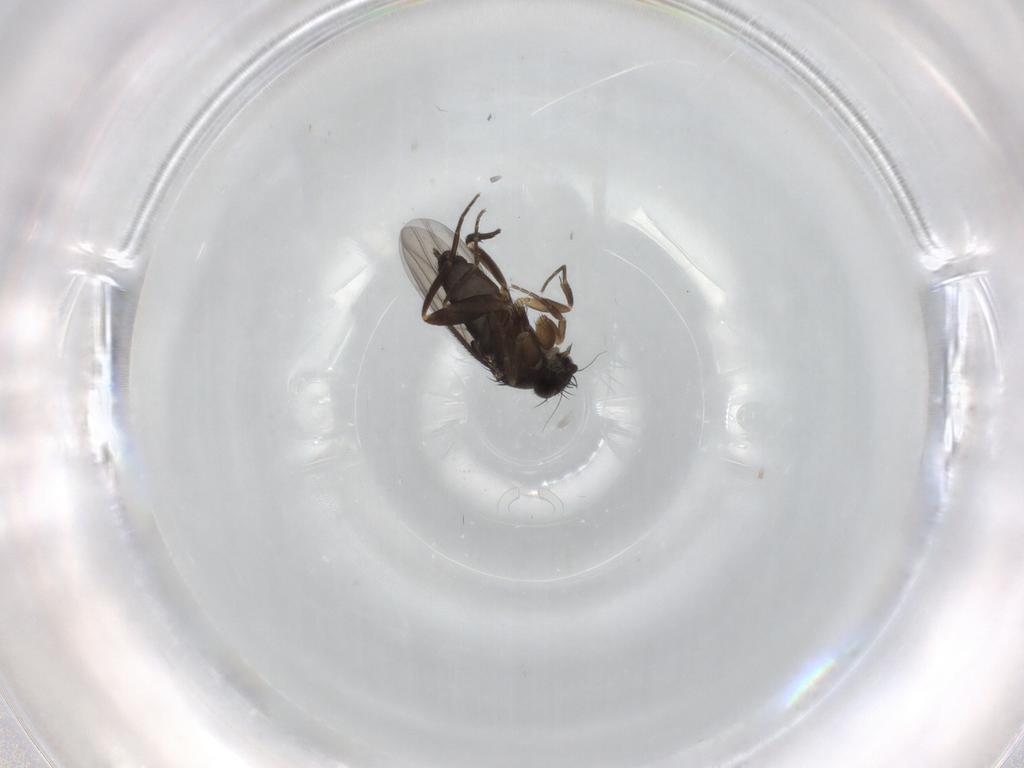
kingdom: Animalia
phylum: Arthropoda
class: Insecta
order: Diptera
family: Phoridae
